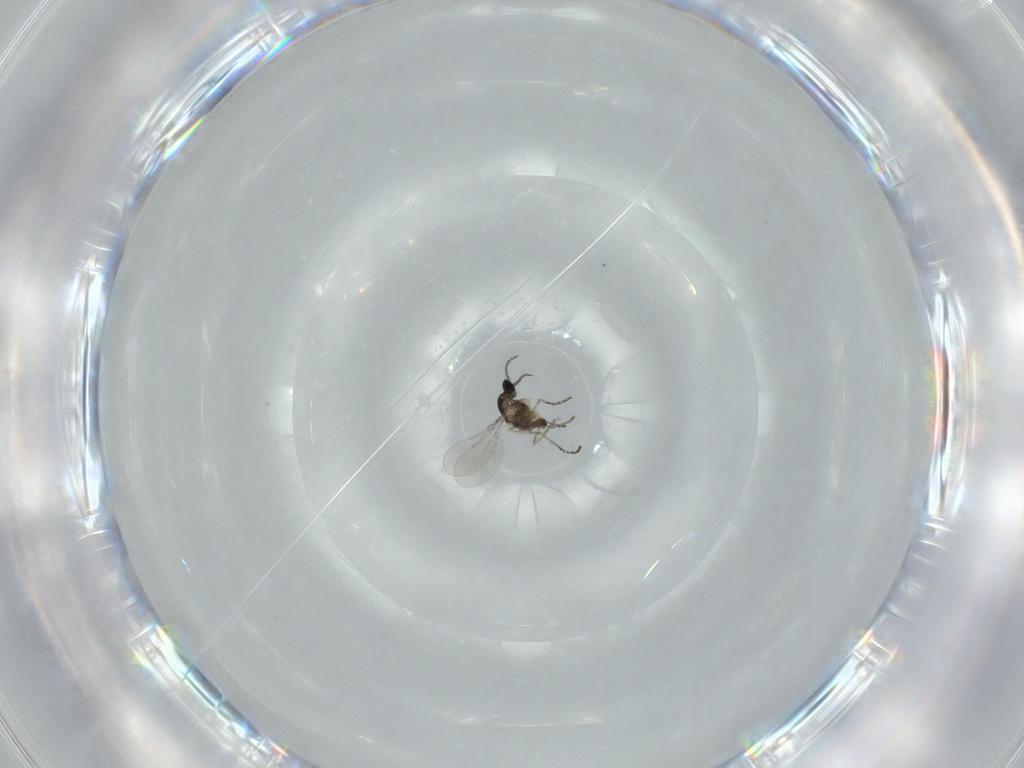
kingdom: Animalia
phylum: Arthropoda
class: Insecta
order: Diptera
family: Cecidomyiidae
